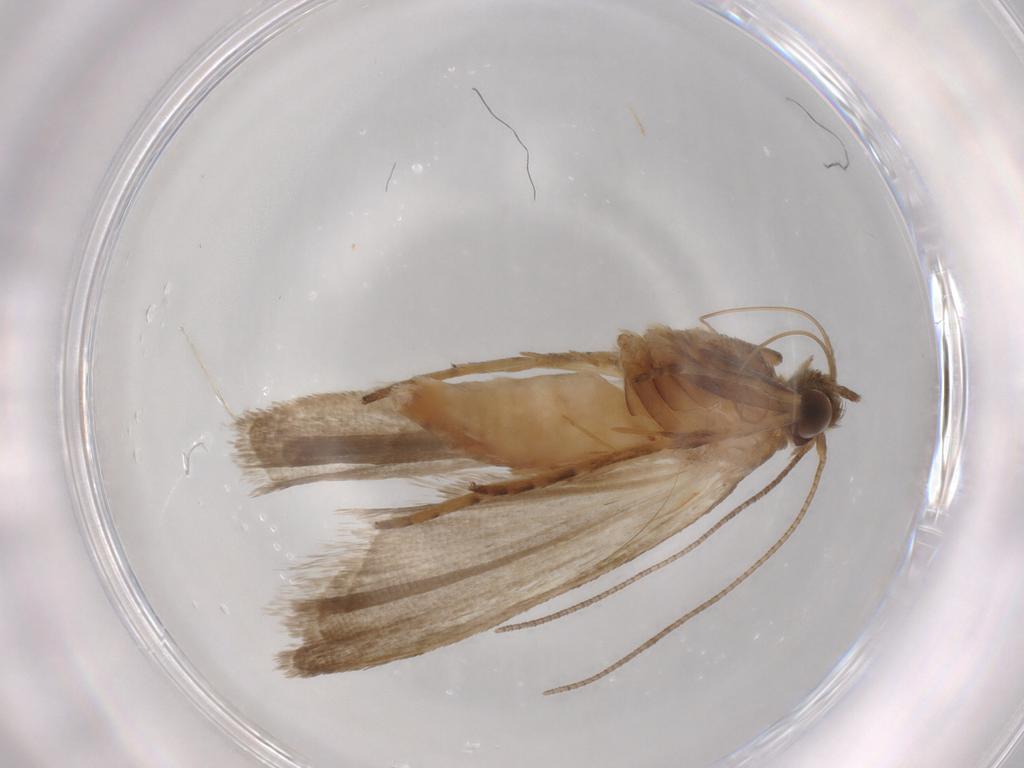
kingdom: Animalia
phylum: Arthropoda
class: Insecta
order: Lepidoptera
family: Noctuidae
